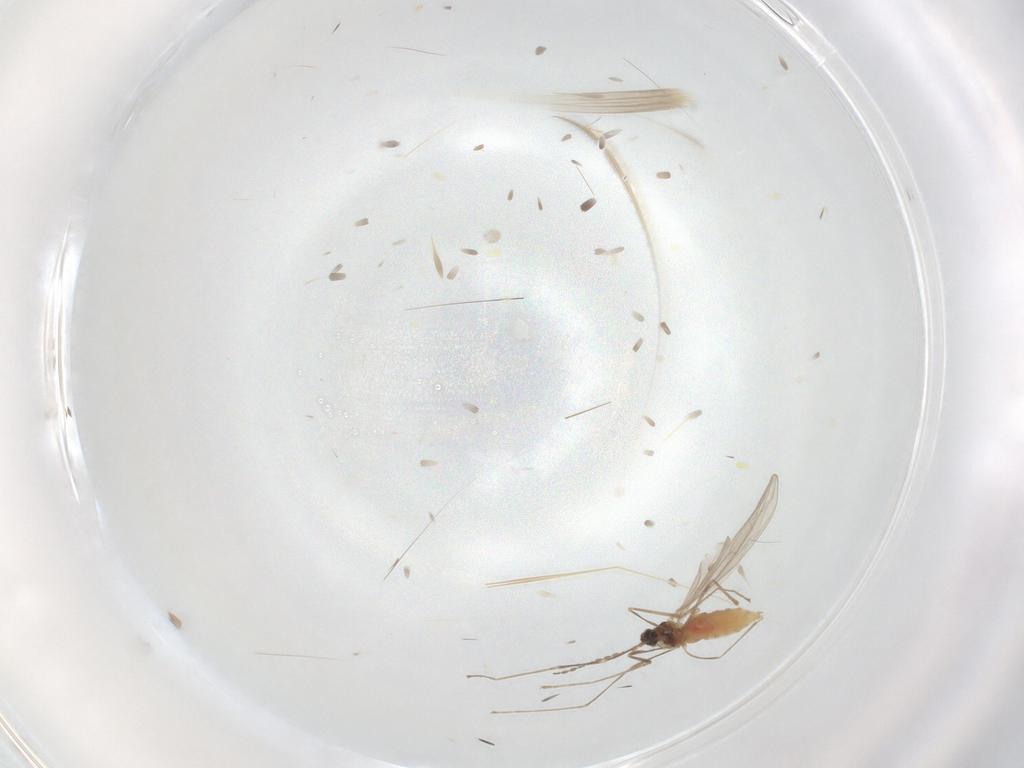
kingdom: Animalia
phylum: Arthropoda
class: Insecta
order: Diptera
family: Cecidomyiidae
